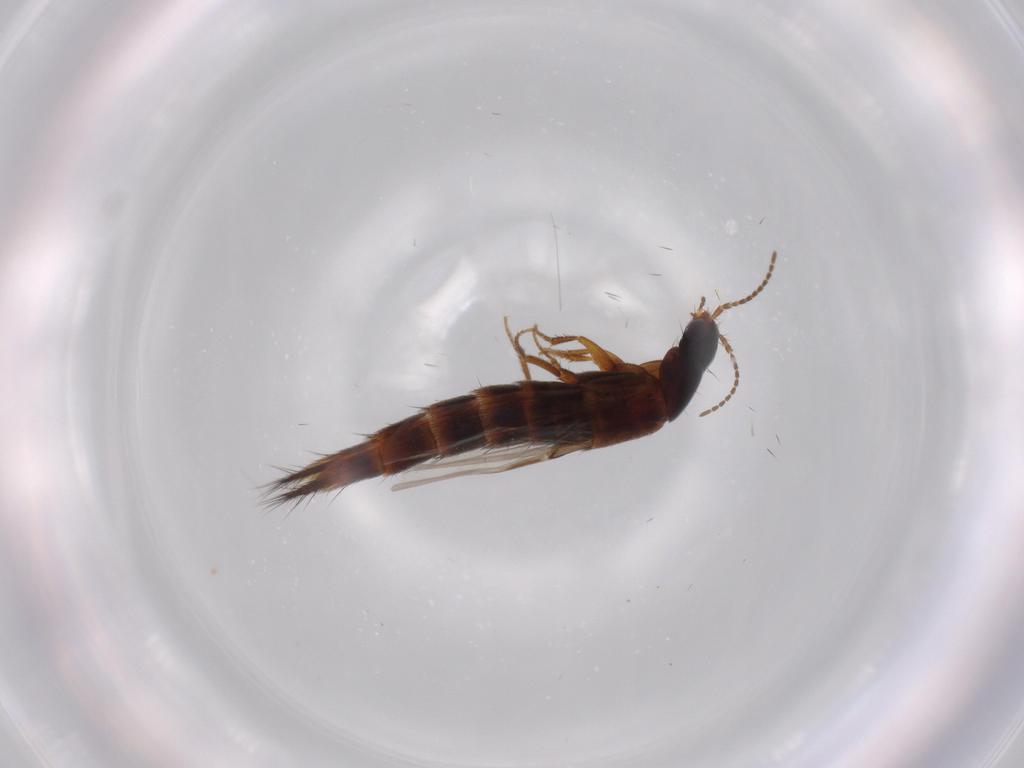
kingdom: Animalia
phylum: Arthropoda
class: Insecta
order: Coleoptera
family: Staphylinidae
